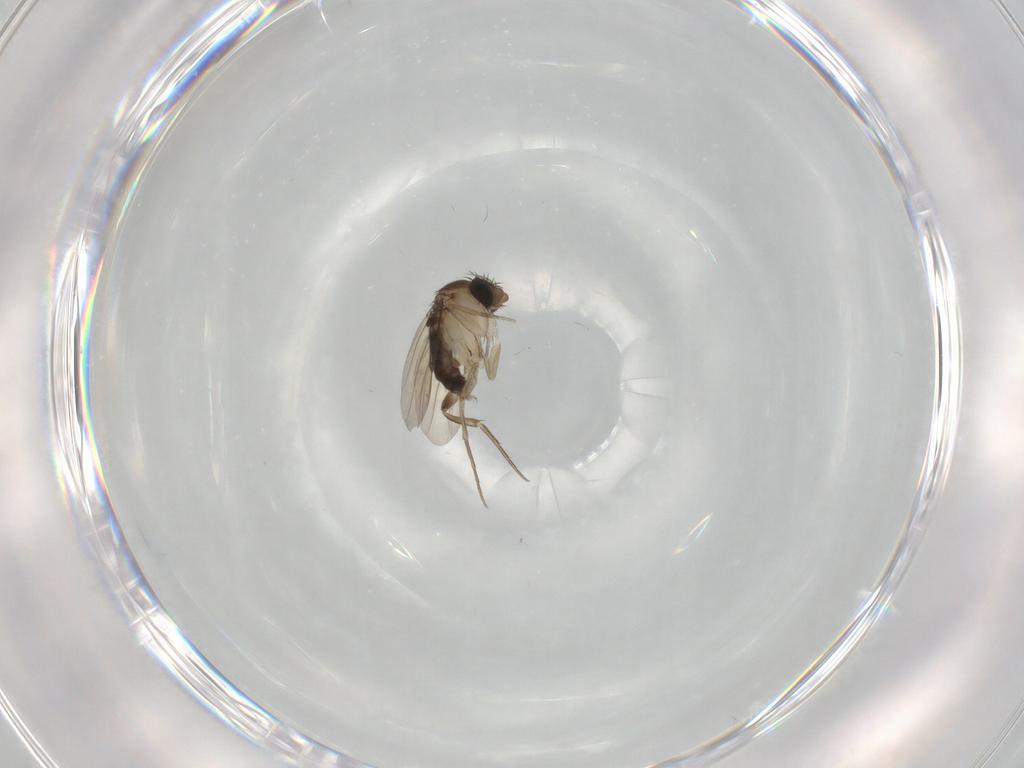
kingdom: Animalia
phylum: Arthropoda
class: Insecta
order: Diptera
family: Phoridae
